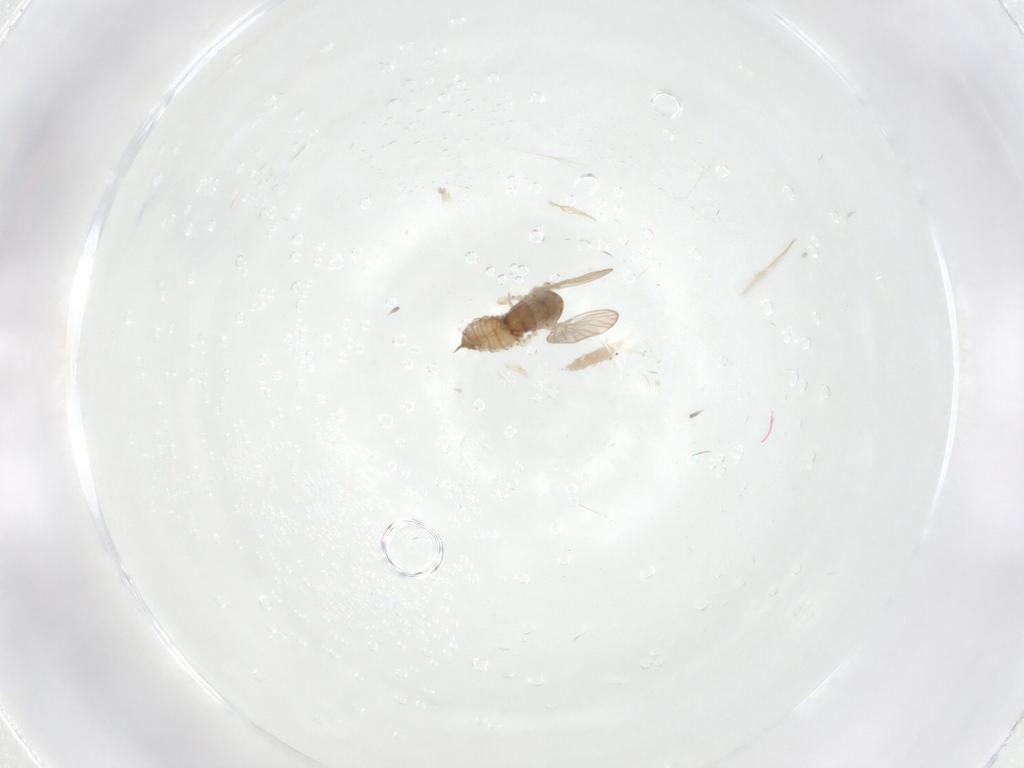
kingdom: Animalia
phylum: Arthropoda
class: Insecta
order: Diptera
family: Psychodidae
